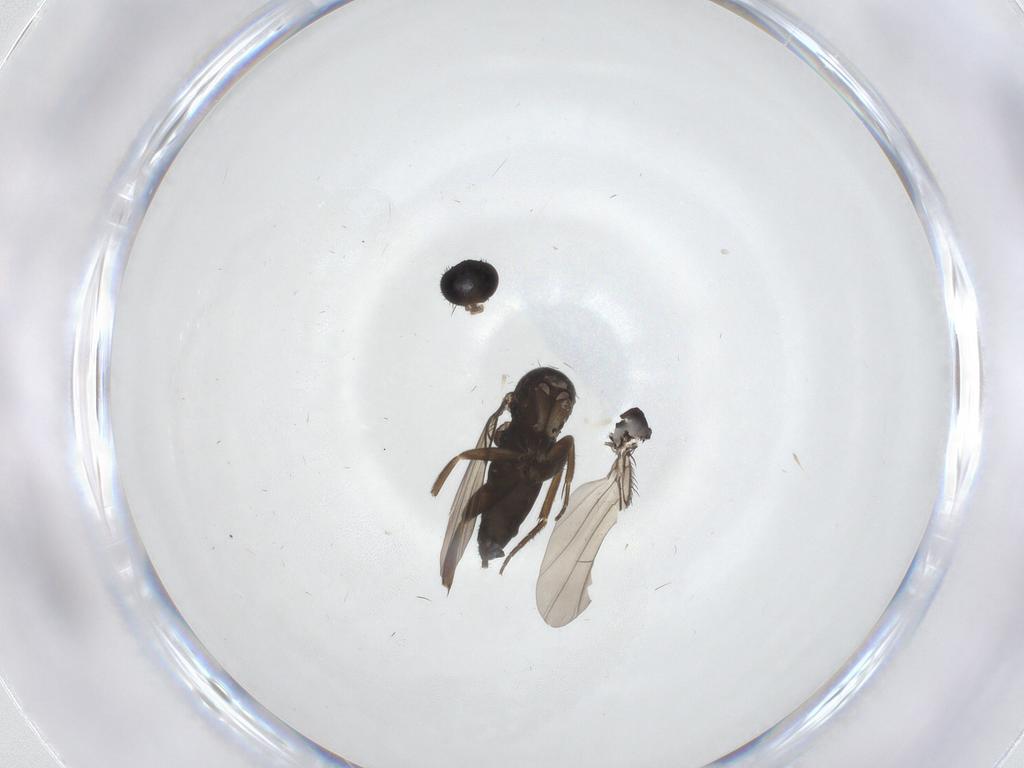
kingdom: Animalia
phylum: Arthropoda
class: Insecta
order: Diptera
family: Phoridae
